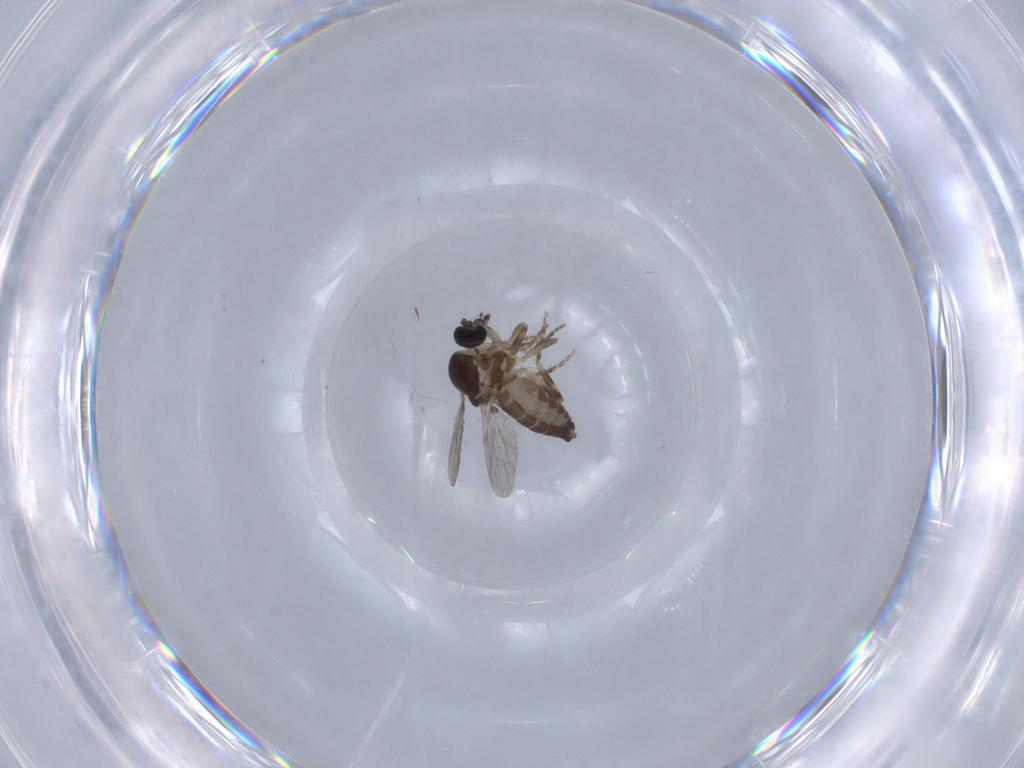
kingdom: Animalia
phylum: Arthropoda
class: Insecta
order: Diptera
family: Ceratopogonidae
